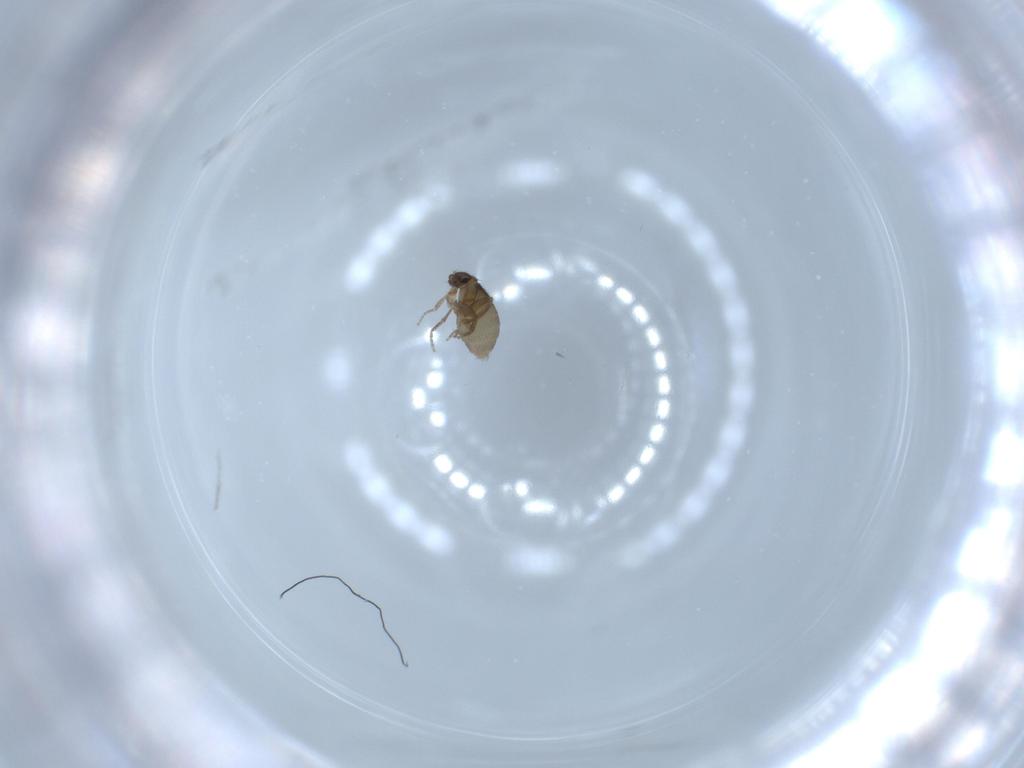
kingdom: Animalia
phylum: Arthropoda
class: Insecta
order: Diptera
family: Phoridae
